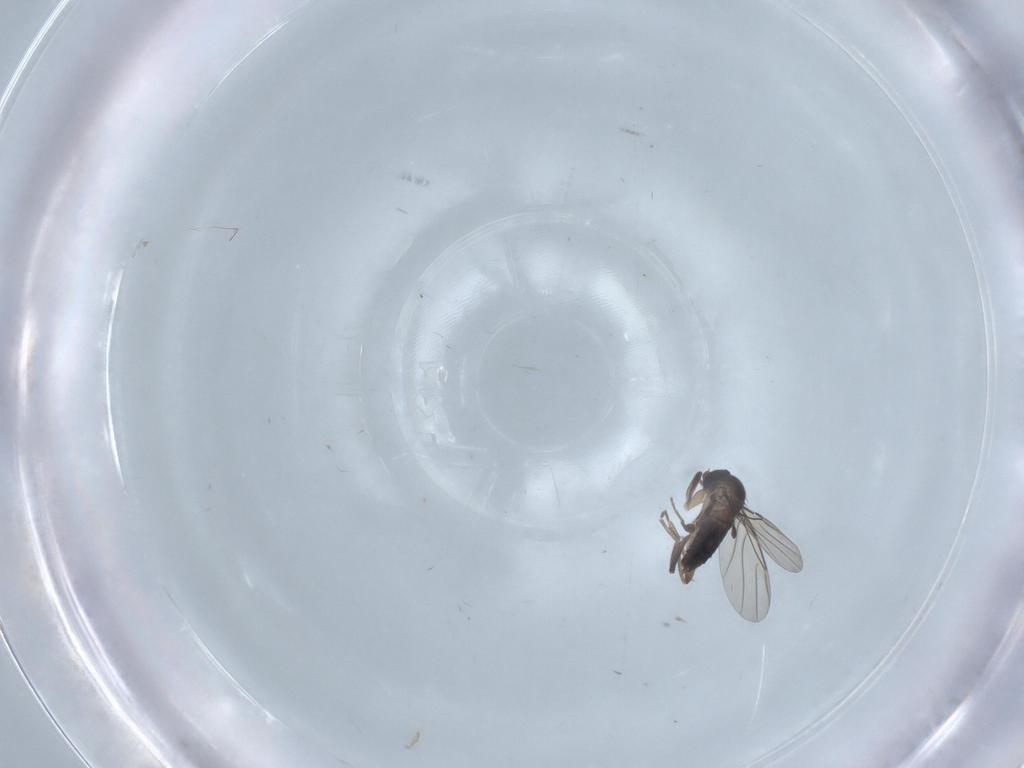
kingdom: Animalia
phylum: Arthropoda
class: Insecta
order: Diptera
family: Phoridae
